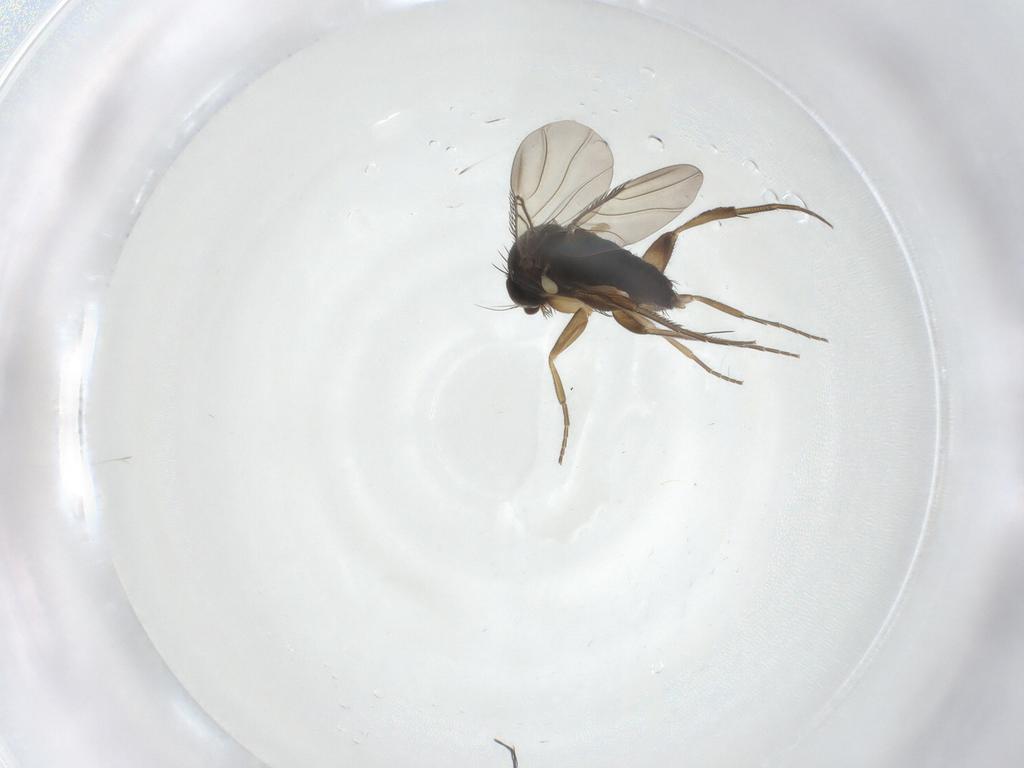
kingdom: Animalia
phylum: Arthropoda
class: Insecta
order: Diptera
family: Phoridae
